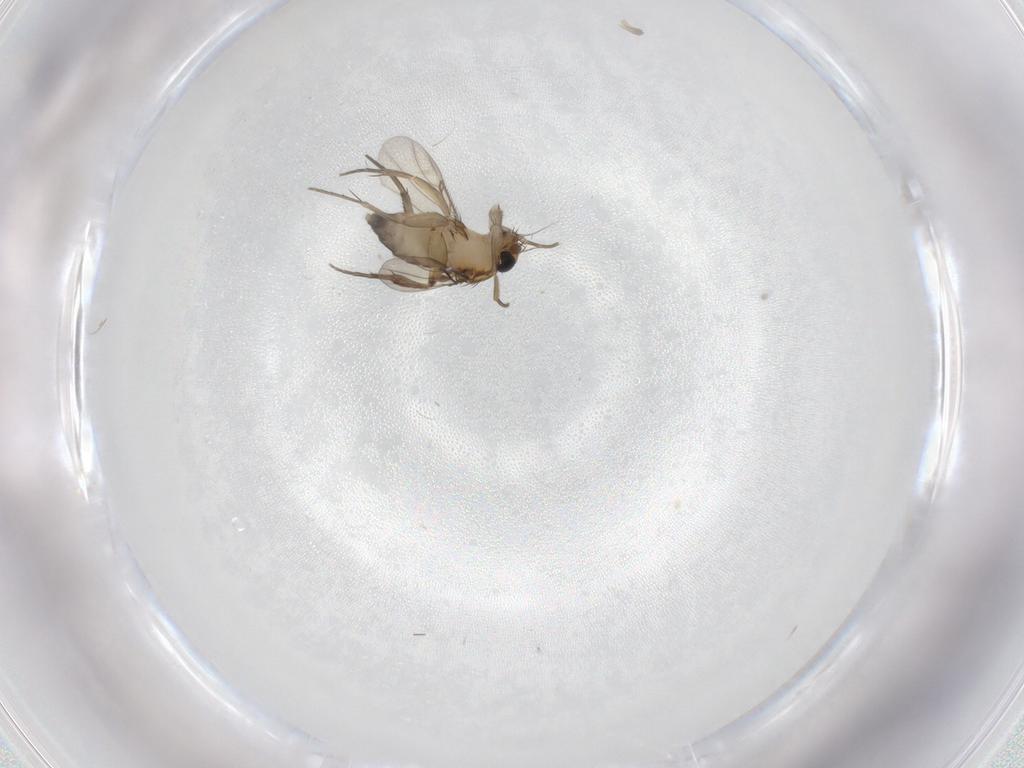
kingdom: Animalia
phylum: Arthropoda
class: Insecta
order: Diptera
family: Phoridae
